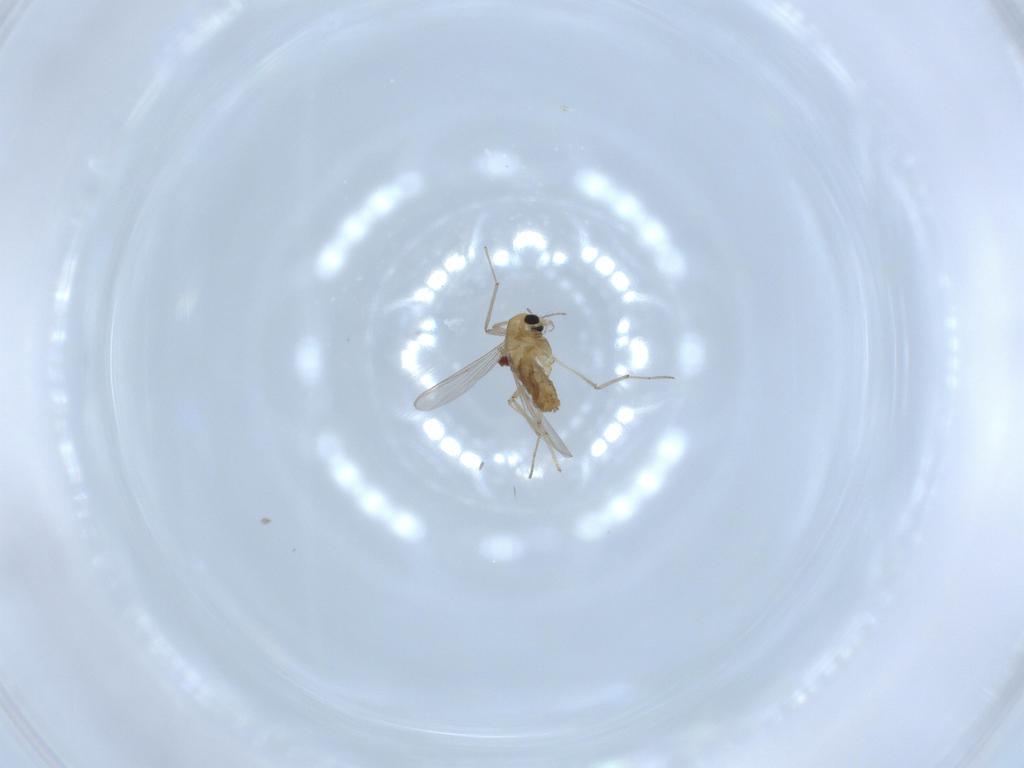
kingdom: Animalia
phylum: Arthropoda
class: Insecta
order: Diptera
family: Chironomidae
